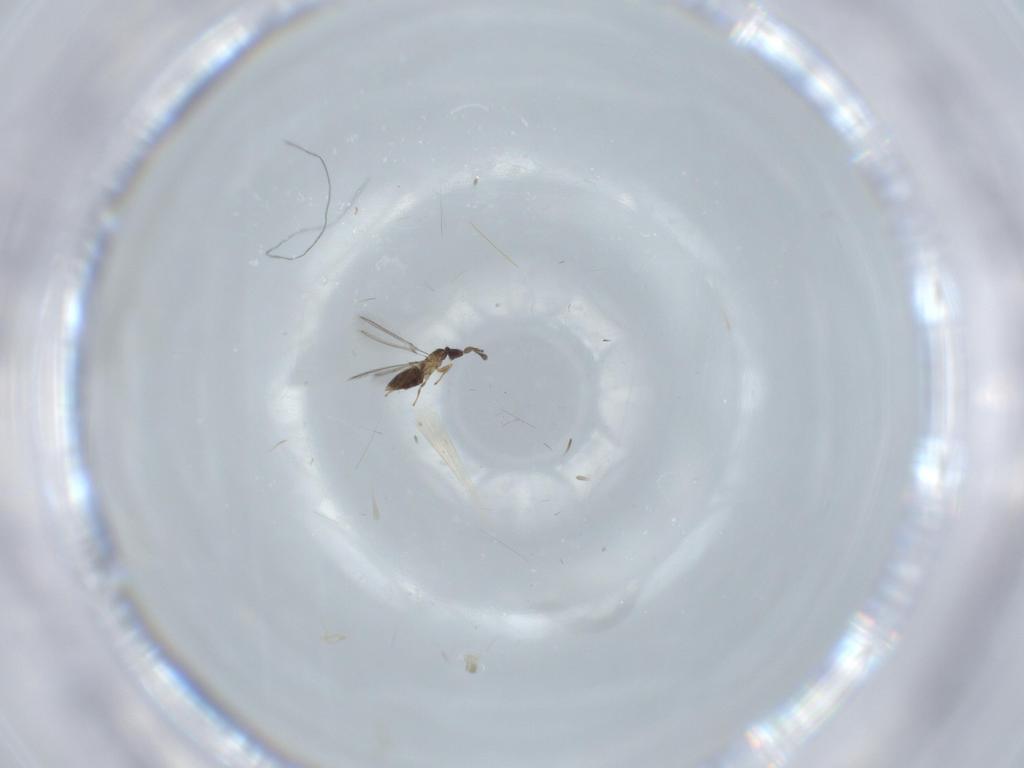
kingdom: Animalia
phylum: Arthropoda
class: Insecta
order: Hymenoptera
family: Mymaridae
